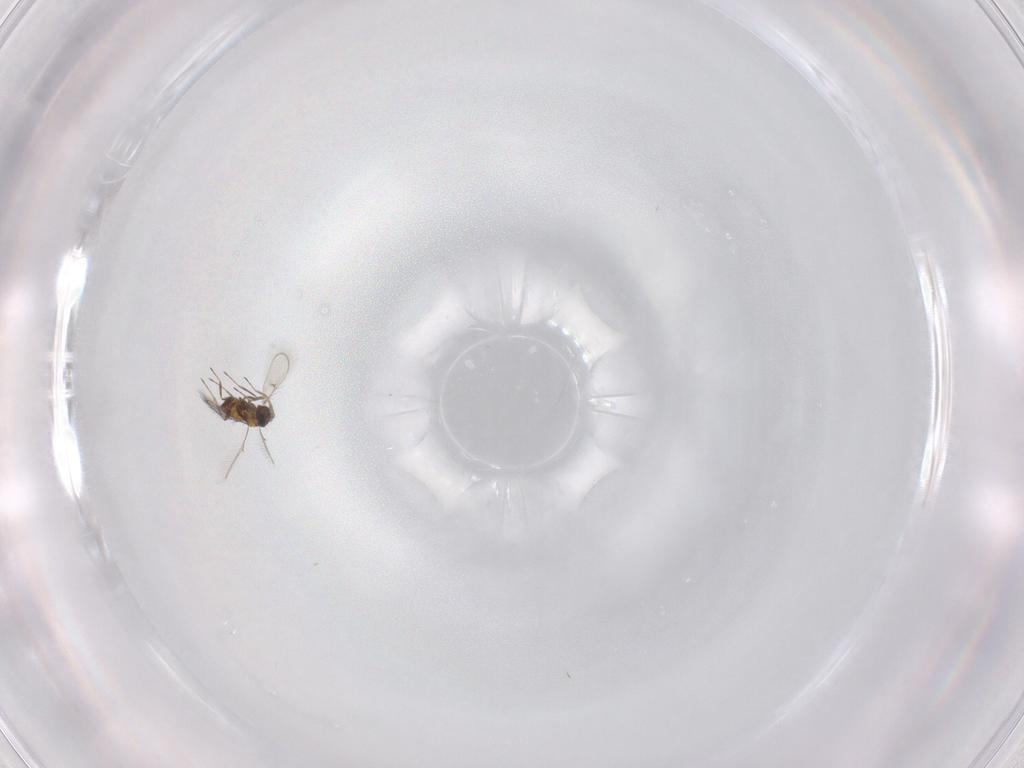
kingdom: Animalia
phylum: Arthropoda
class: Insecta
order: Hymenoptera
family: Trichogrammatidae
